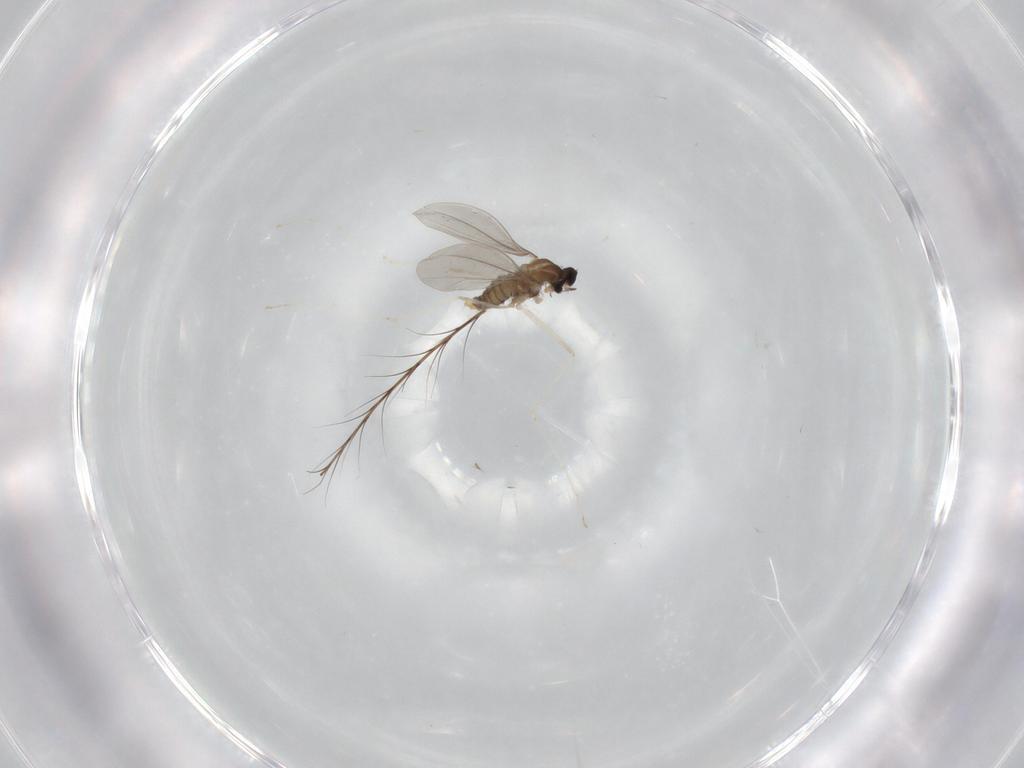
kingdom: Animalia
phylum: Arthropoda
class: Insecta
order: Diptera
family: Cecidomyiidae
